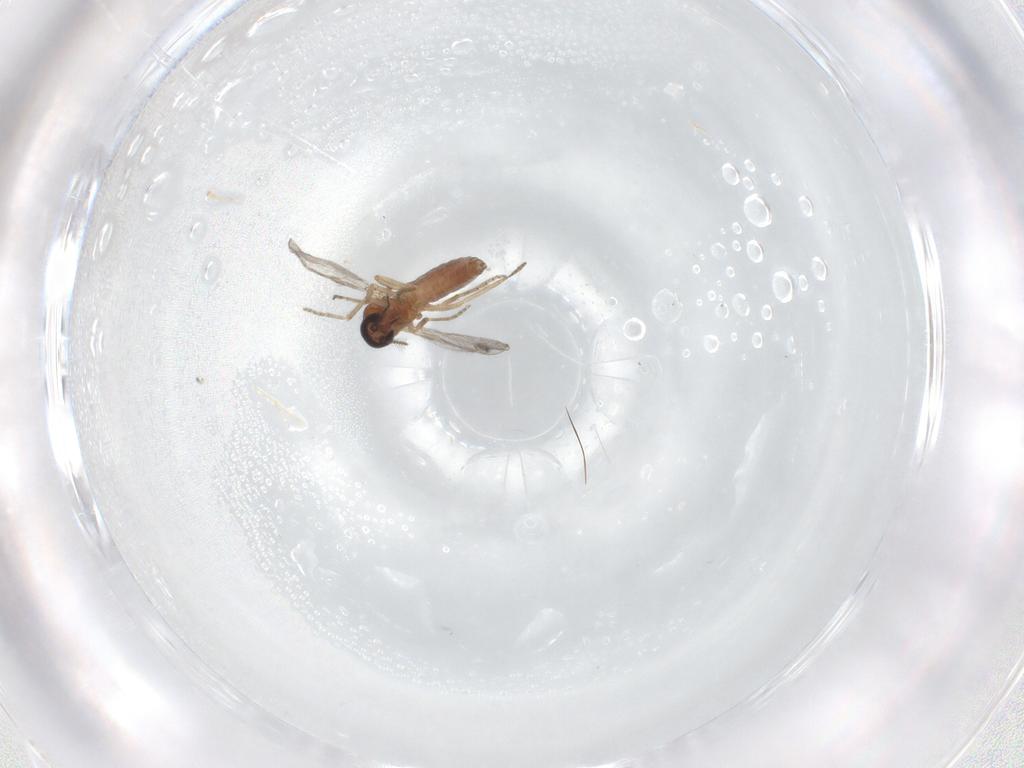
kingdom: Animalia
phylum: Arthropoda
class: Insecta
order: Diptera
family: Ceratopogonidae
